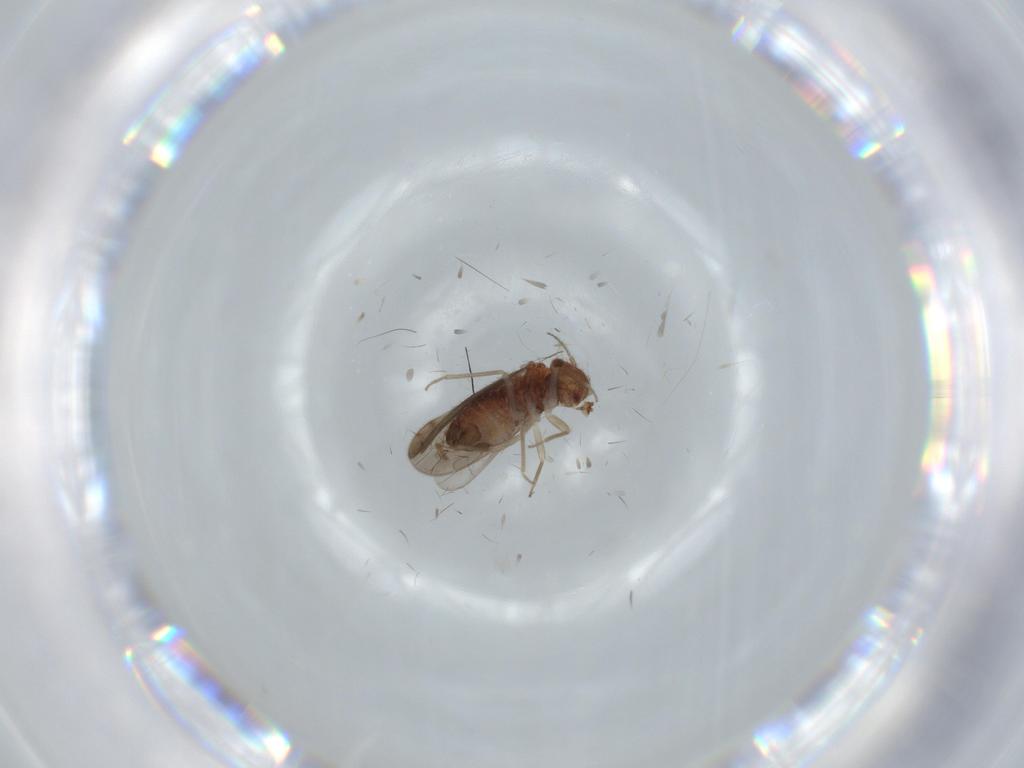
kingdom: Animalia
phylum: Arthropoda
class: Insecta
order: Psocodea
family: Ectopsocidae
